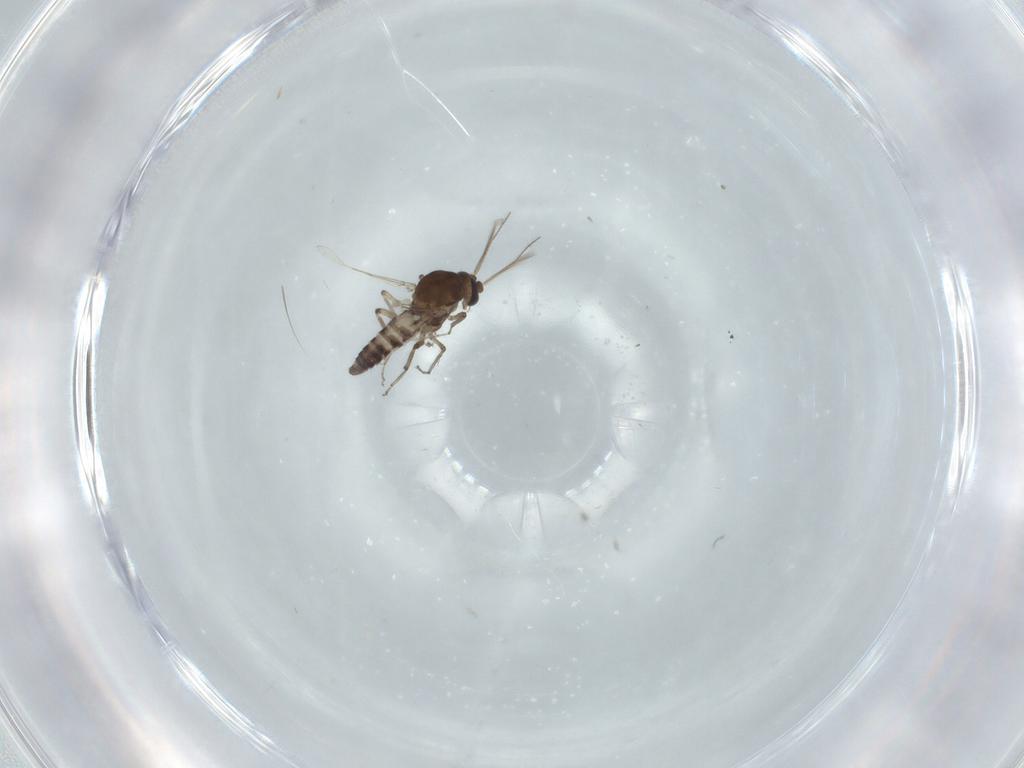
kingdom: Animalia
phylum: Arthropoda
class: Insecta
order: Diptera
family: Ceratopogonidae
